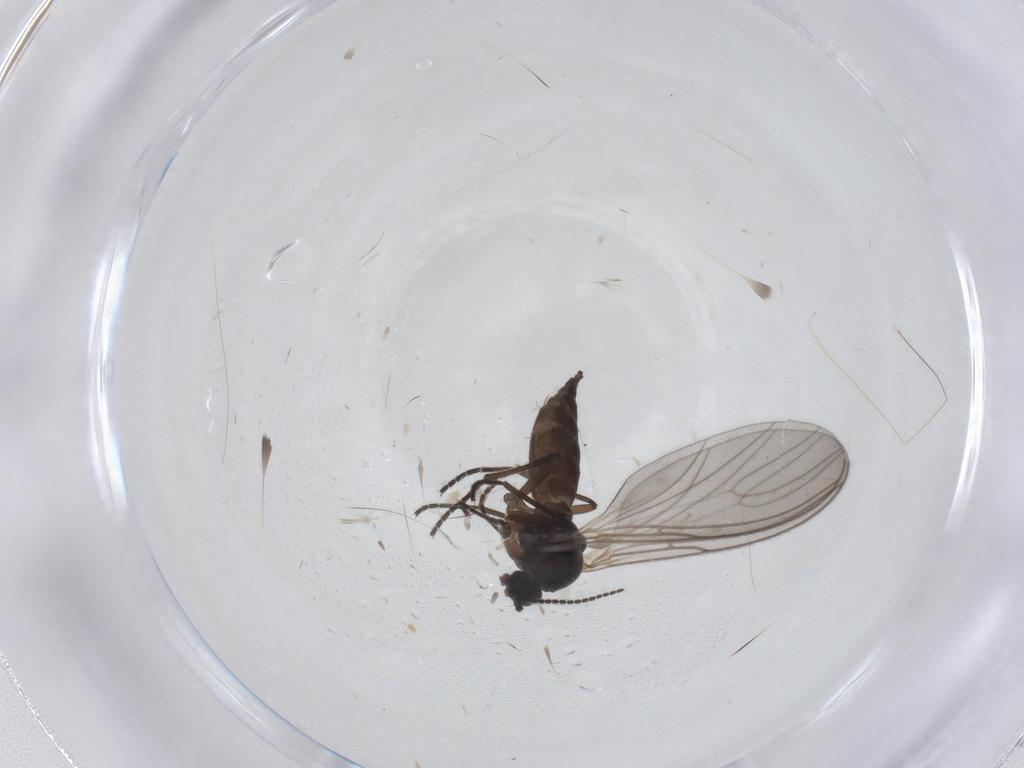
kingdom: Animalia
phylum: Arthropoda
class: Insecta
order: Diptera
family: Sciaridae
